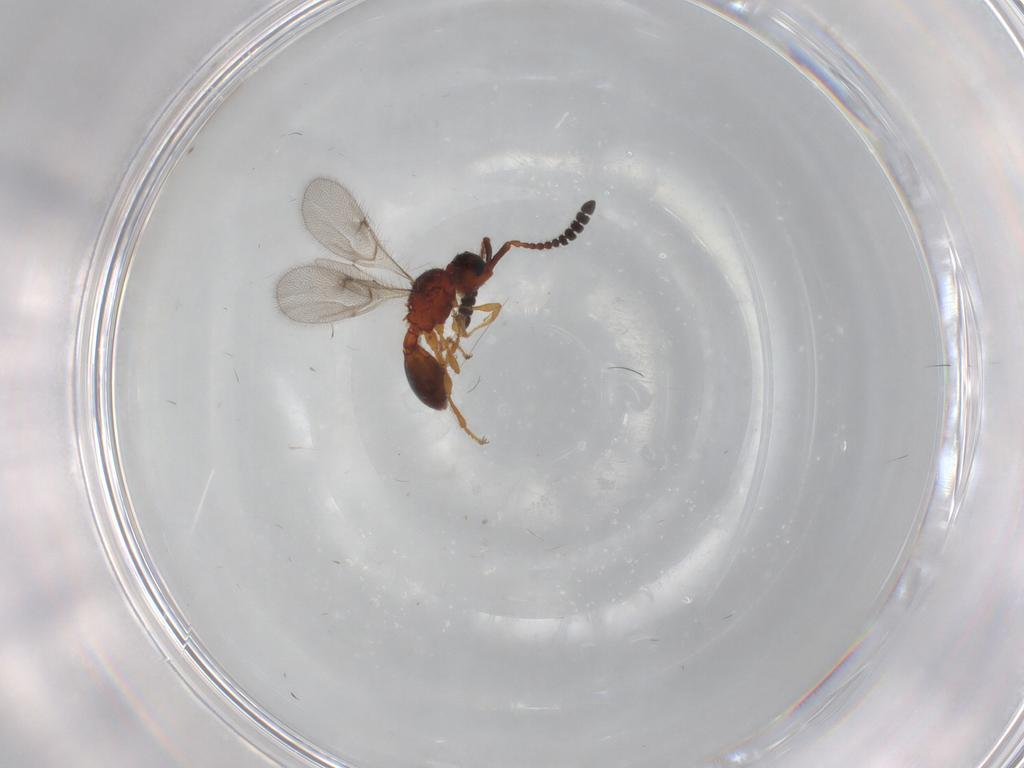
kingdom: Animalia
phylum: Arthropoda
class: Insecta
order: Hymenoptera
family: Diapriidae
